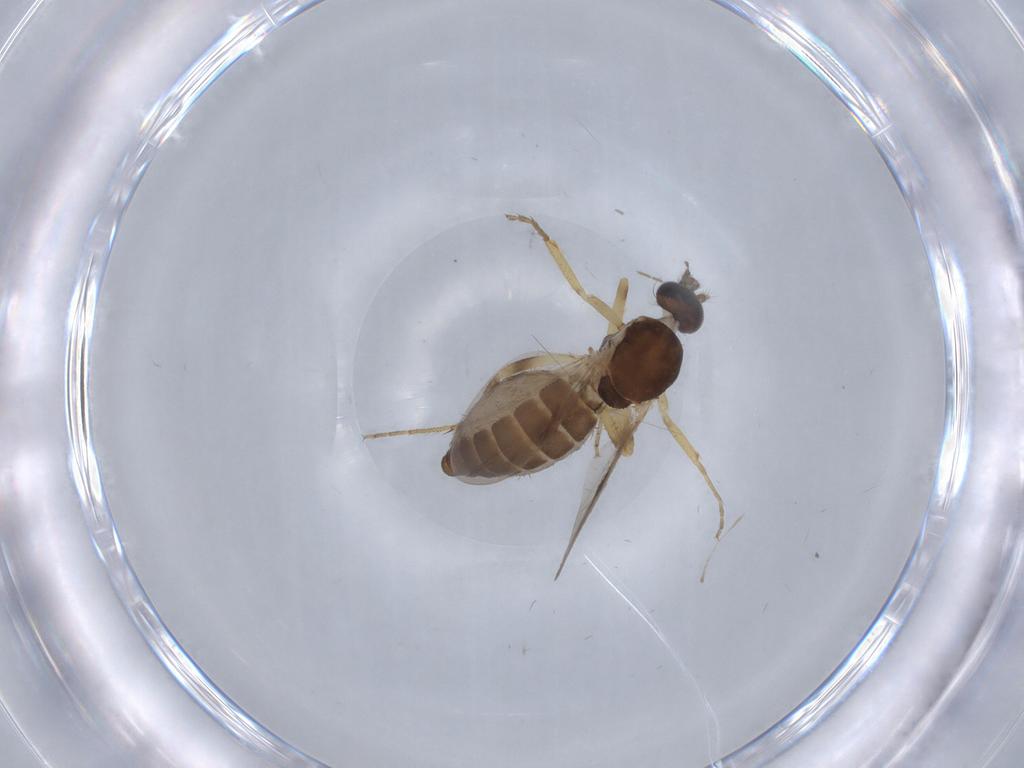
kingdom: Animalia
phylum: Arthropoda
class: Insecta
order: Diptera
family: Ceratopogonidae
